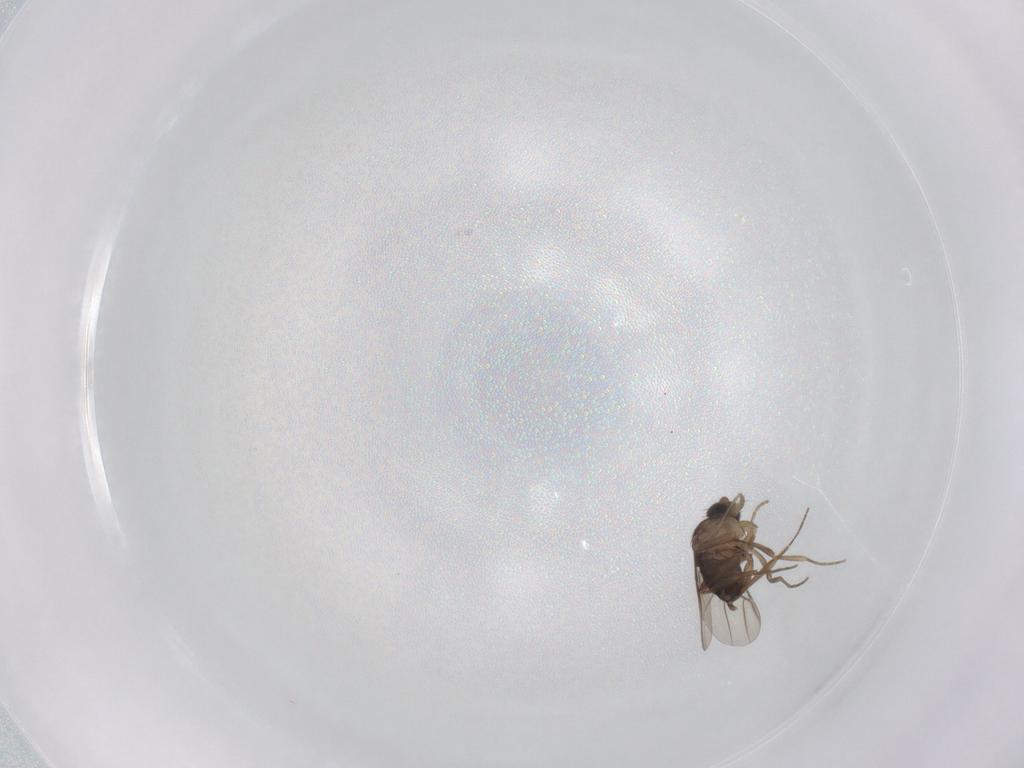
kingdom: Animalia
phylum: Arthropoda
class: Insecta
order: Diptera
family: Phoridae
